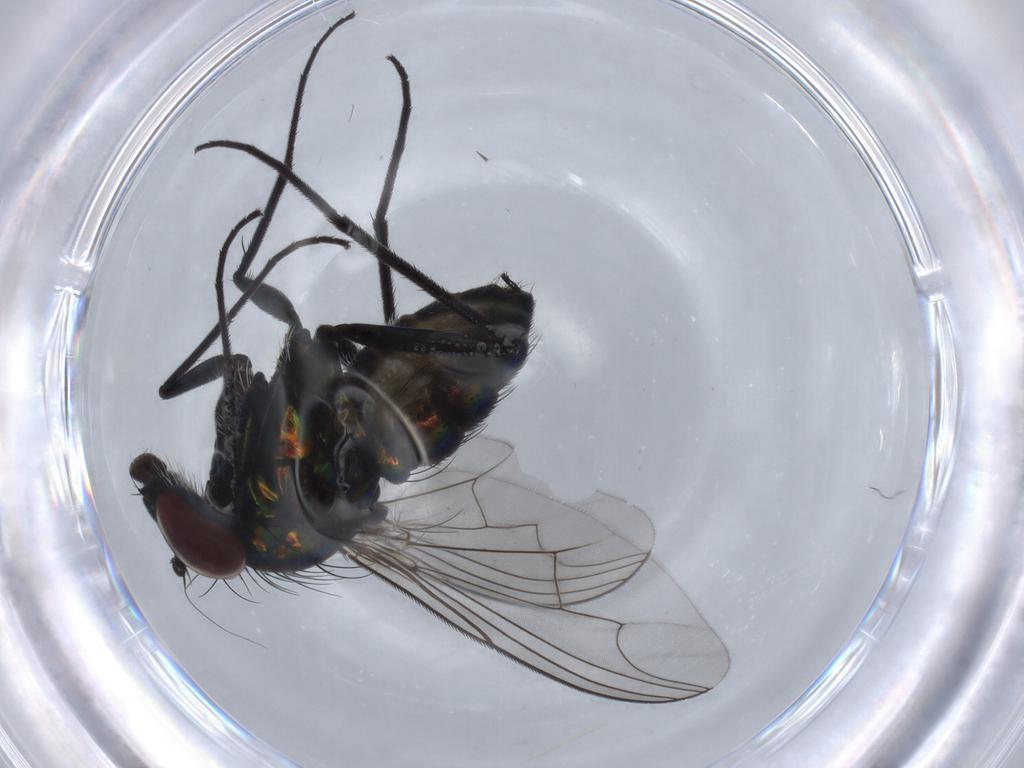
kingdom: Animalia
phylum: Arthropoda
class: Insecta
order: Diptera
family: Dolichopodidae
